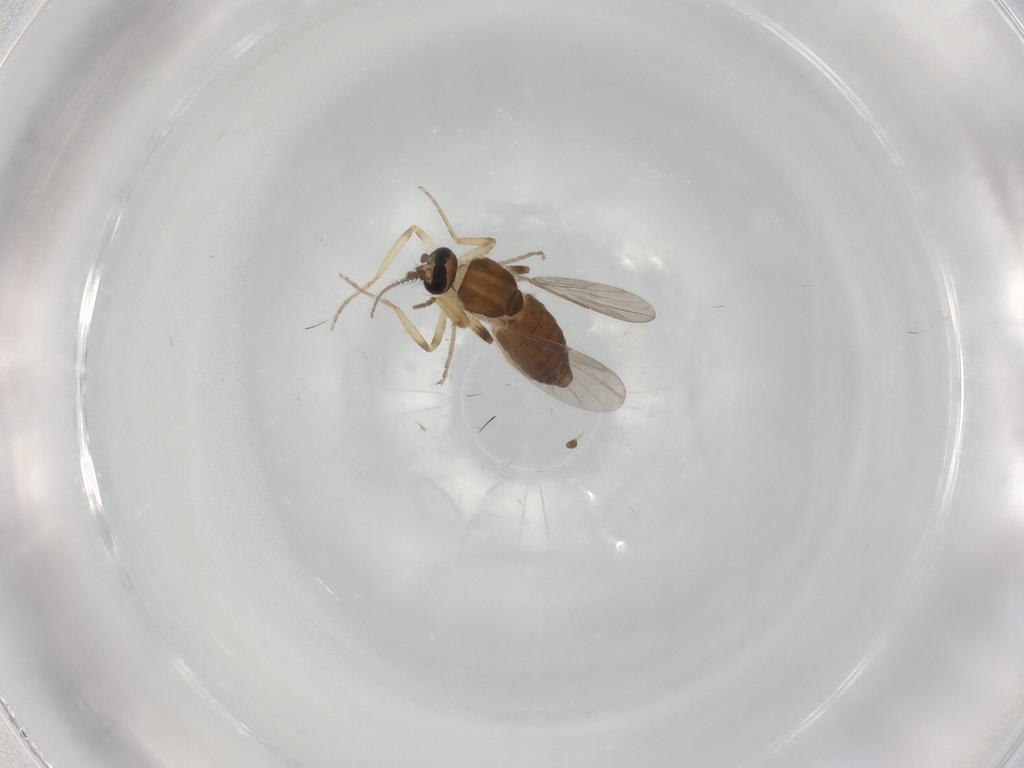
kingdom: Animalia
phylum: Arthropoda
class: Insecta
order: Diptera
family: Ceratopogonidae
